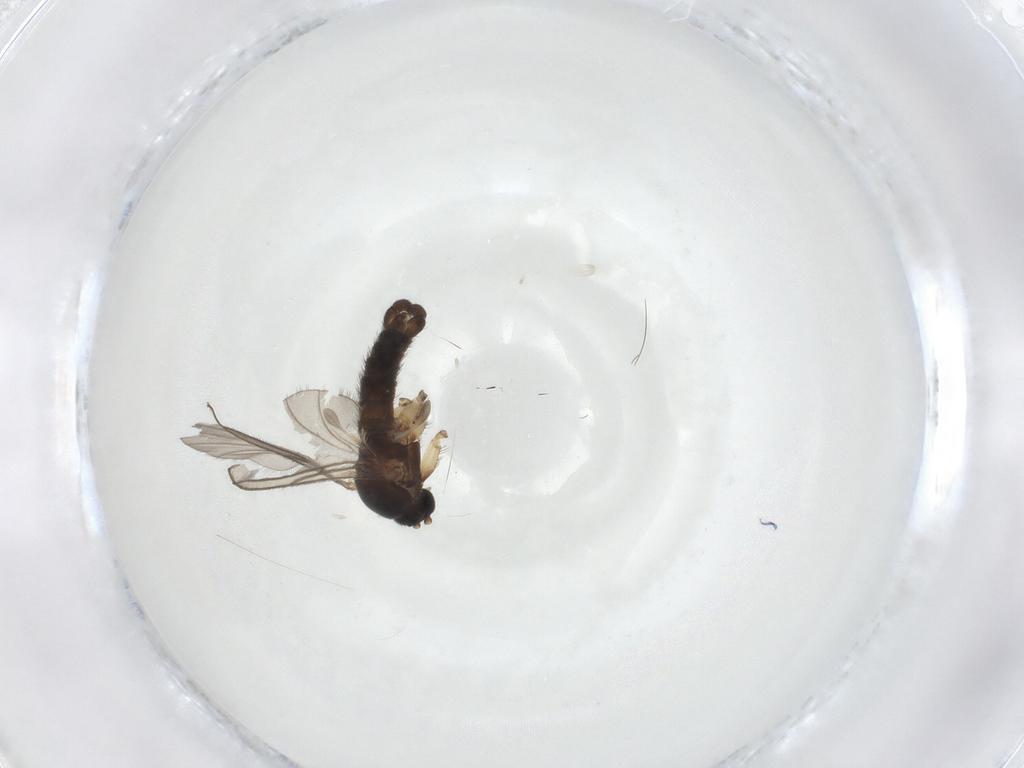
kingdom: Animalia
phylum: Arthropoda
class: Insecta
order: Diptera
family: Sciaridae
